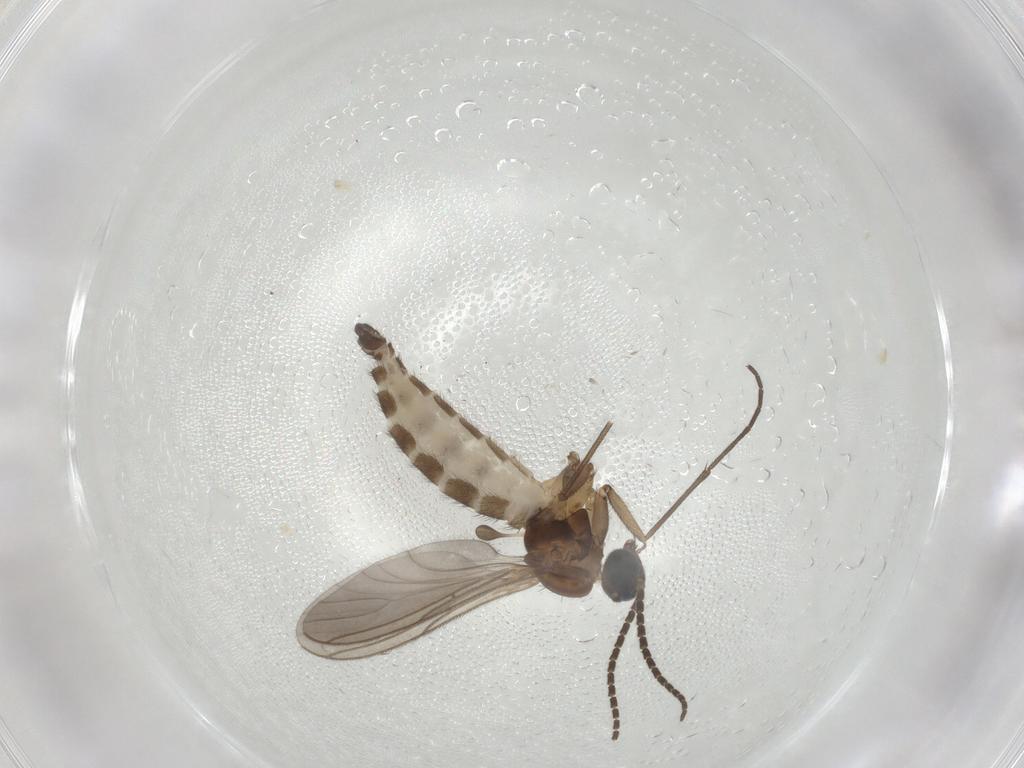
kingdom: Animalia
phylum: Arthropoda
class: Insecta
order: Diptera
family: Sciaridae
